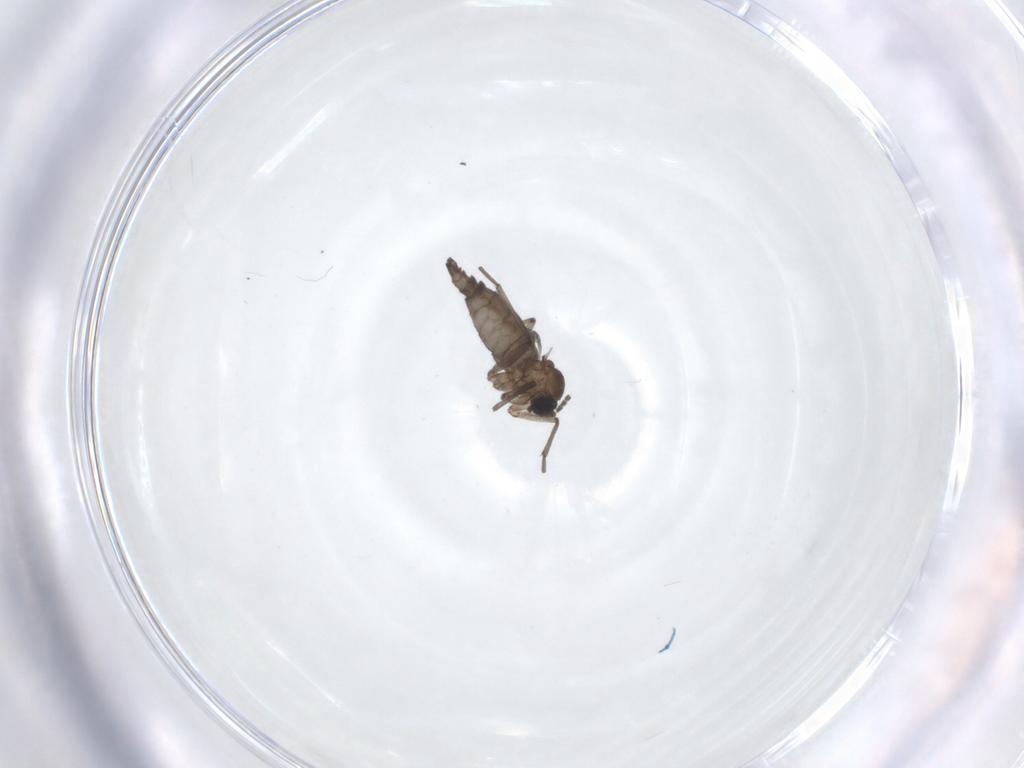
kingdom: Animalia
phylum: Arthropoda
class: Insecta
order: Diptera
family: Sciaridae
